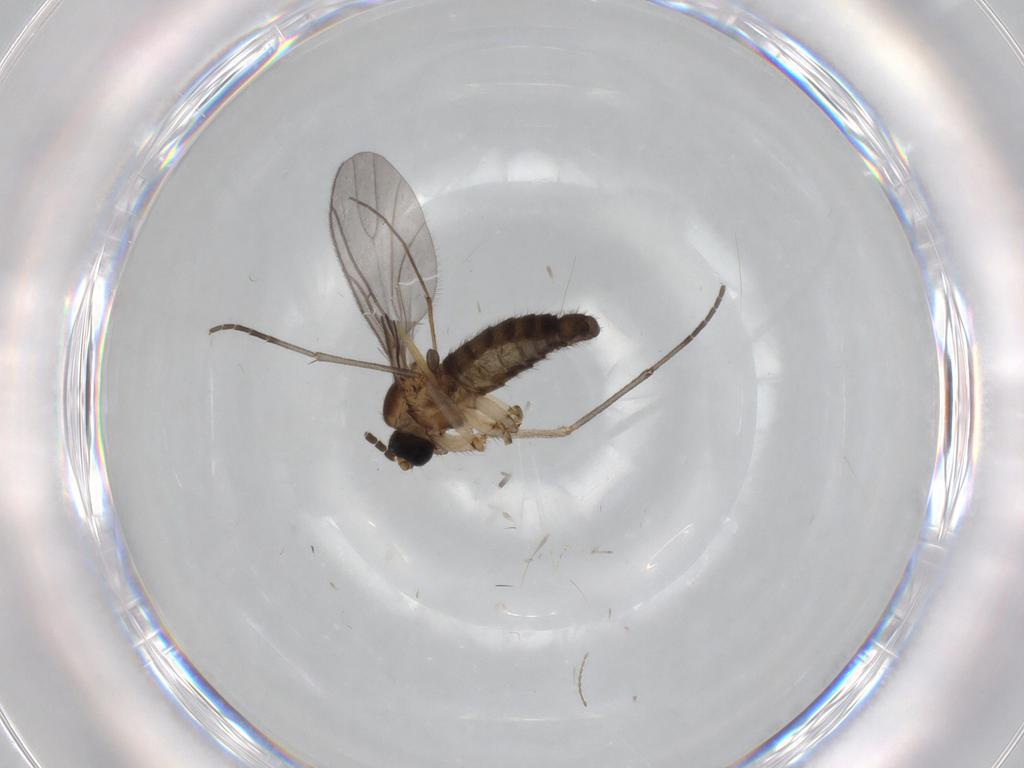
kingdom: Animalia
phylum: Arthropoda
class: Insecta
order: Diptera
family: Sciaridae
